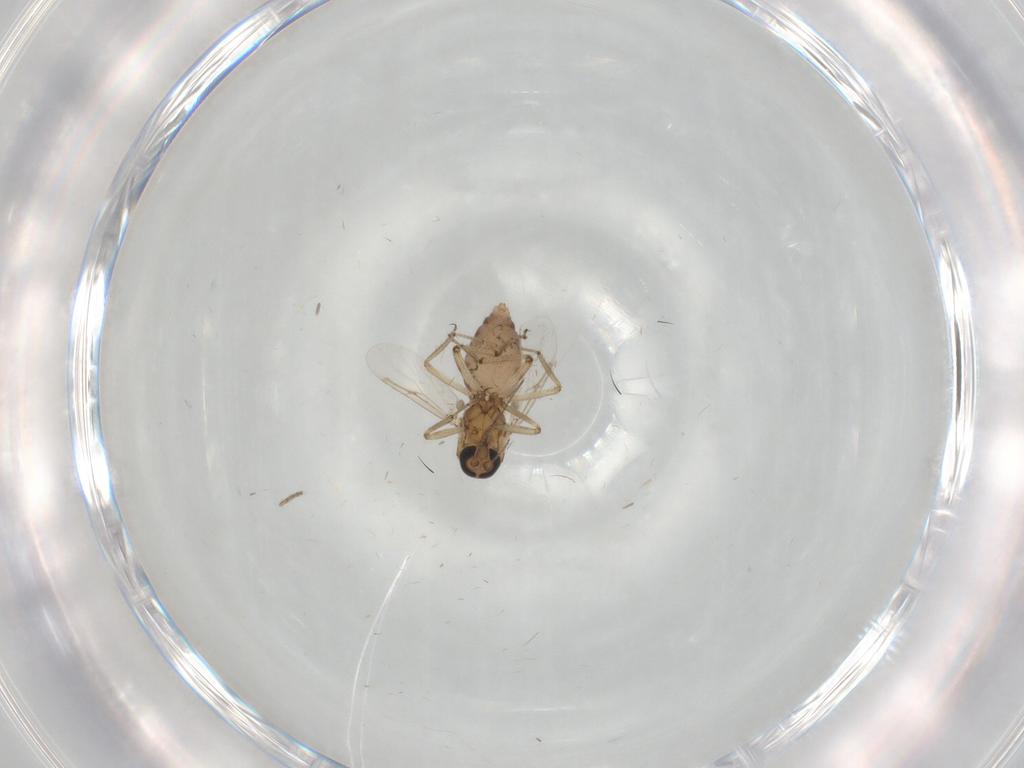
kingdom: Animalia
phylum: Arthropoda
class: Insecta
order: Diptera
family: Ceratopogonidae
